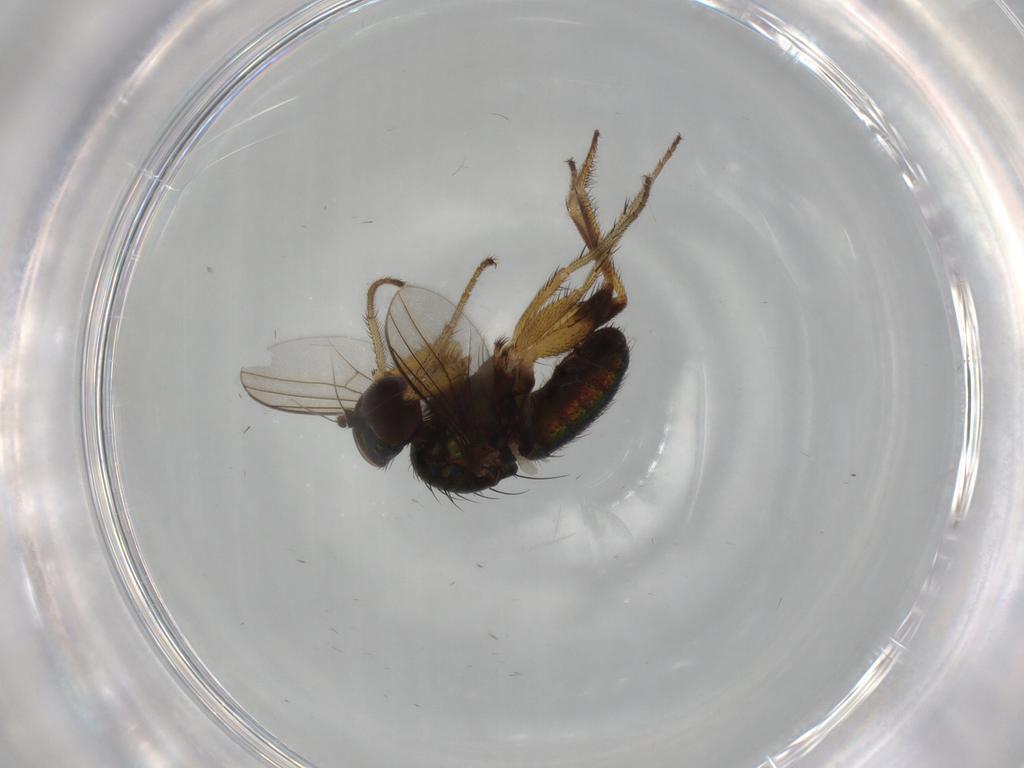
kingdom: Animalia
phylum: Arthropoda
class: Insecta
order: Diptera
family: Dolichopodidae
